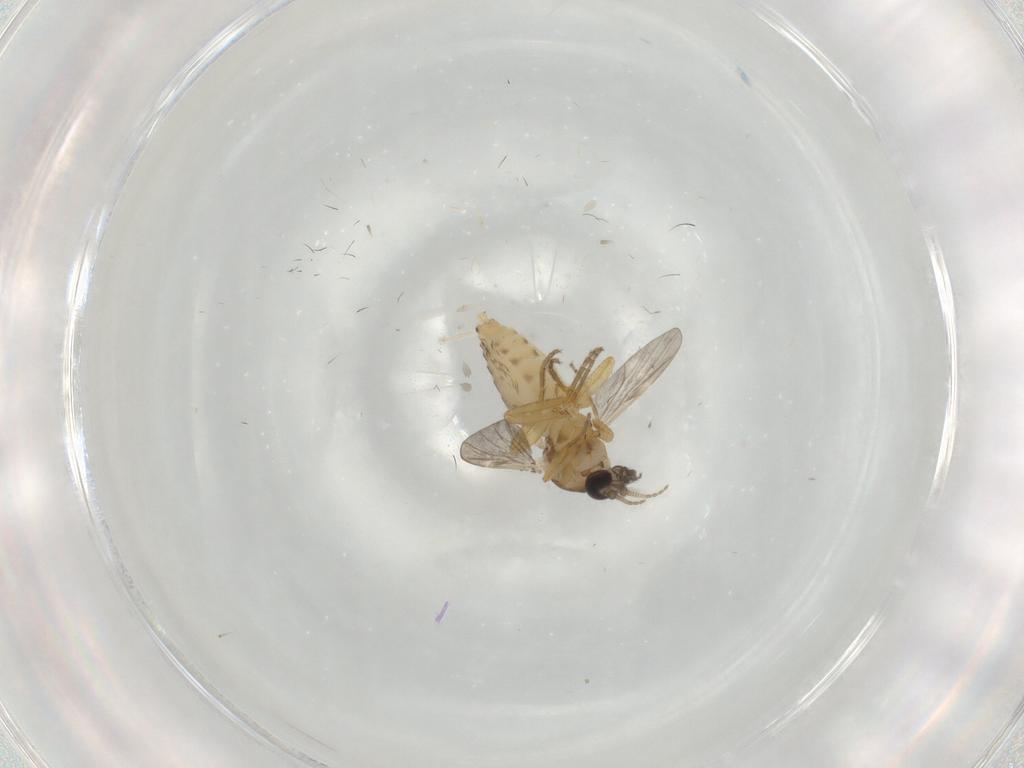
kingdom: Animalia
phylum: Arthropoda
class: Insecta
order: Diptera
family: Ceratopogonidae
